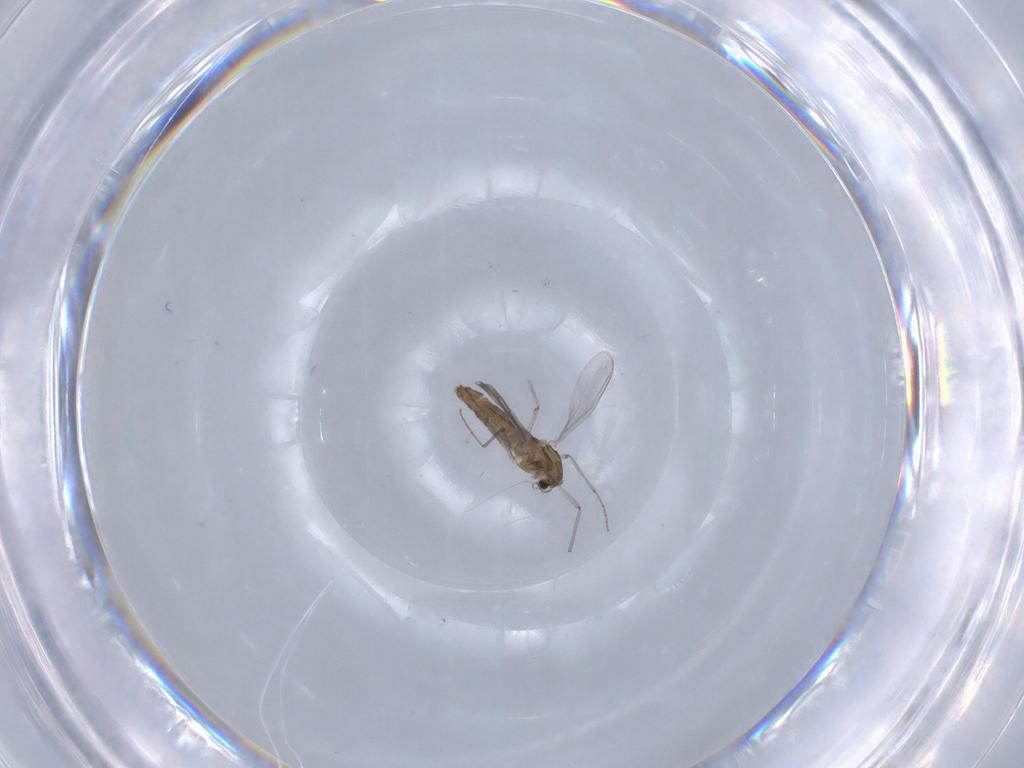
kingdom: Animalia
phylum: Arthropoda
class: Insecta
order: Diptera
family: Chironomidae
